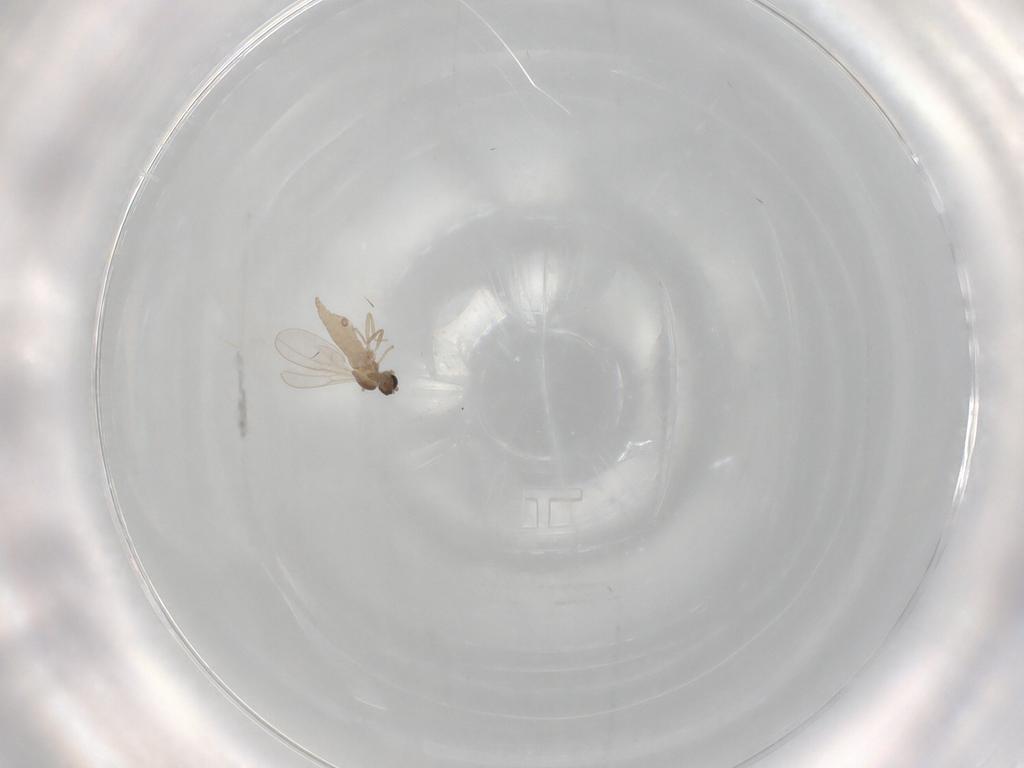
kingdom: Animalia
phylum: Arthropoda
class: Insecta
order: Diptera
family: Cecidomyiidae
